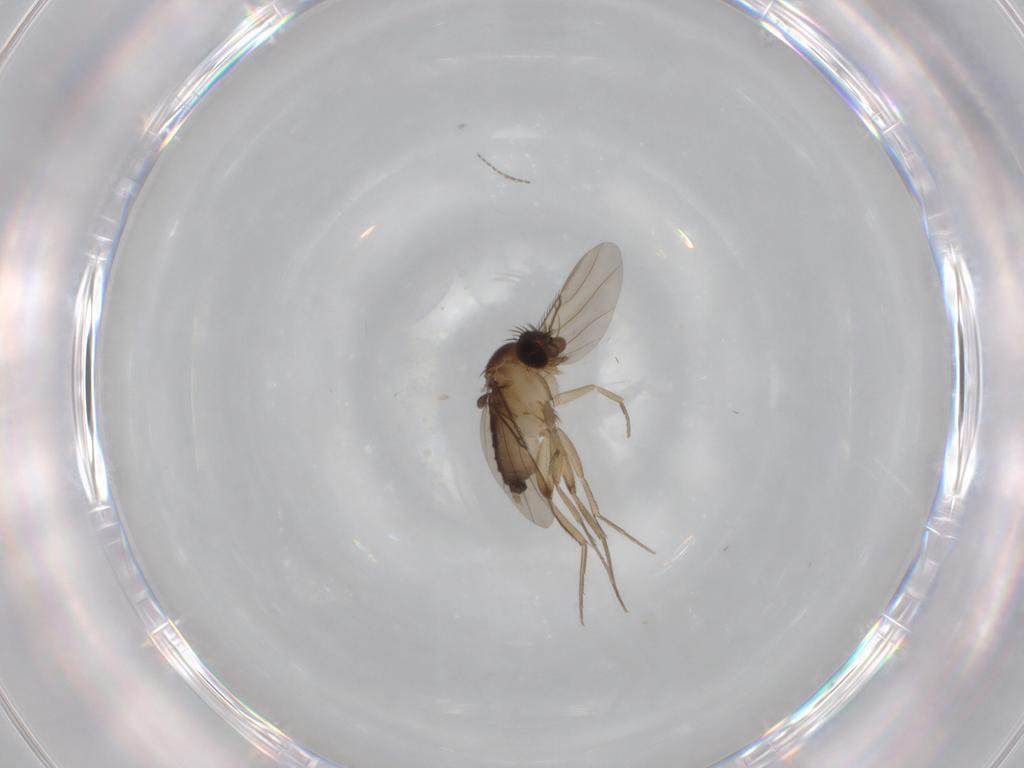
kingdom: Animalia
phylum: Arthropoda
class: Insecta
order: Diptera
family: Phoridae
